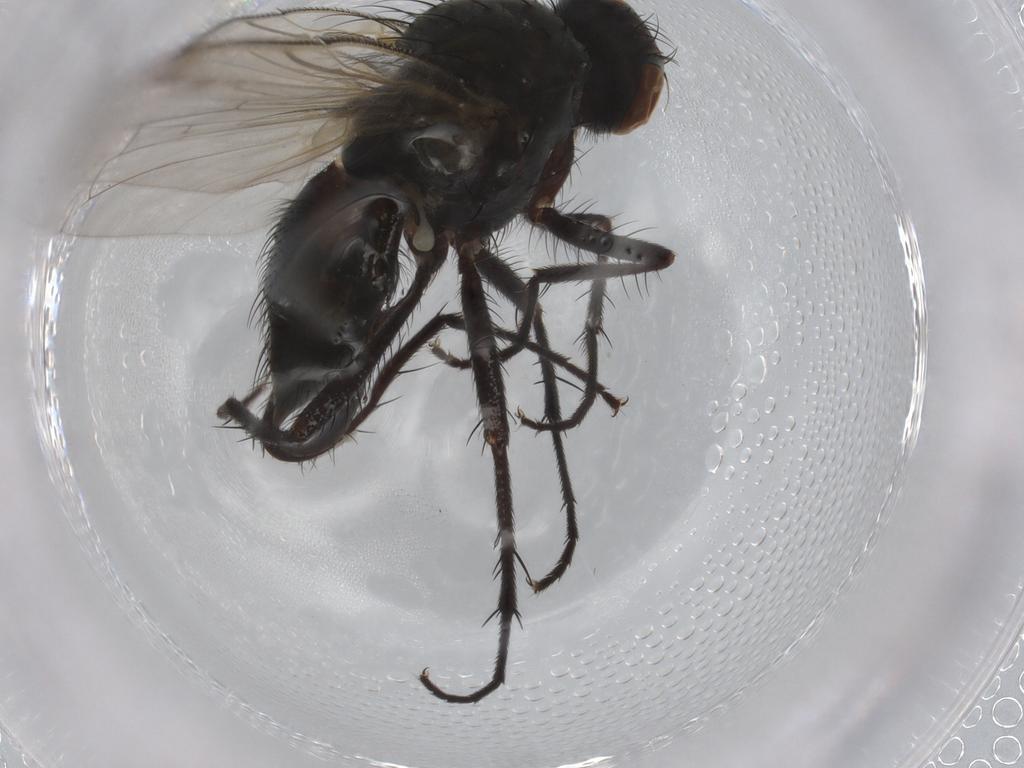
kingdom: Animalia
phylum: Arthropoda
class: Insecta
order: Diptera
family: Anthomyiidae
